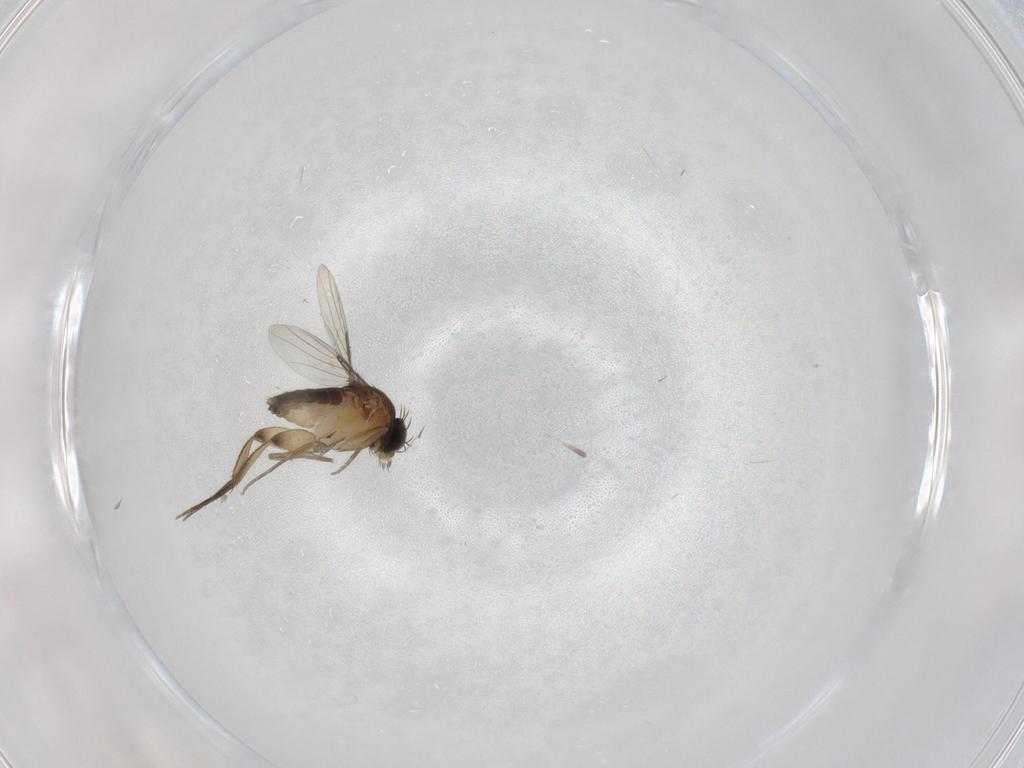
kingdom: Animalia
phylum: Arthropoda
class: Insecta
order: Diptera
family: Phoridae
